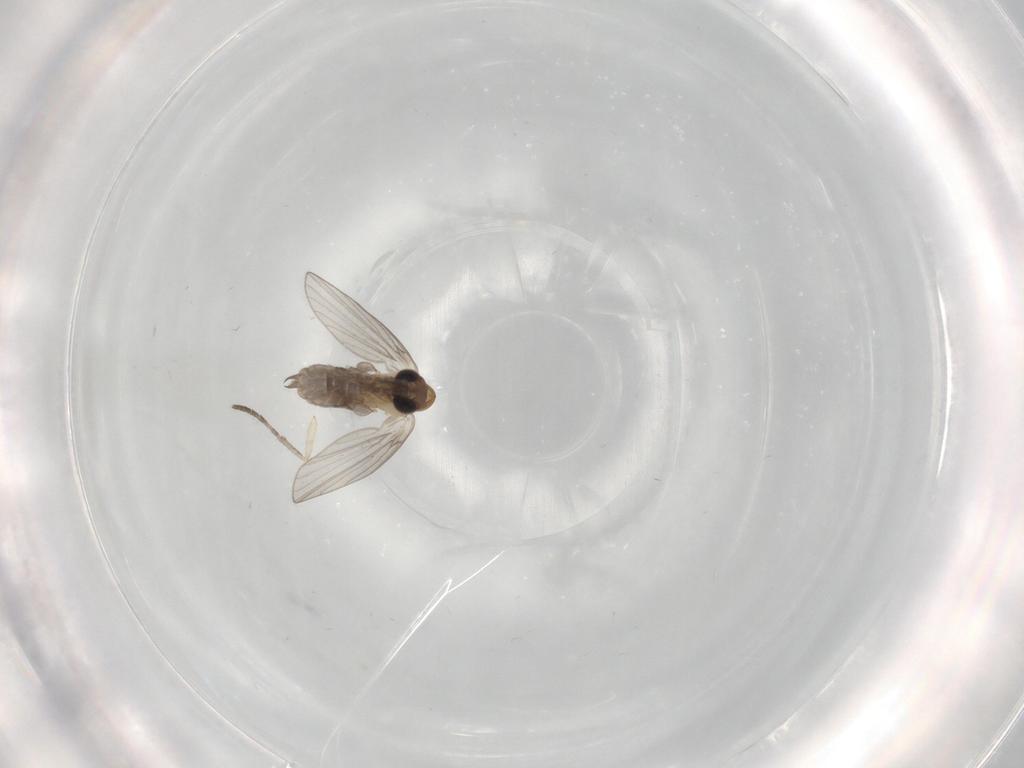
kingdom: Animalia
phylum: Arthropoda
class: Insecta
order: Diptera
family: Psychodidae
